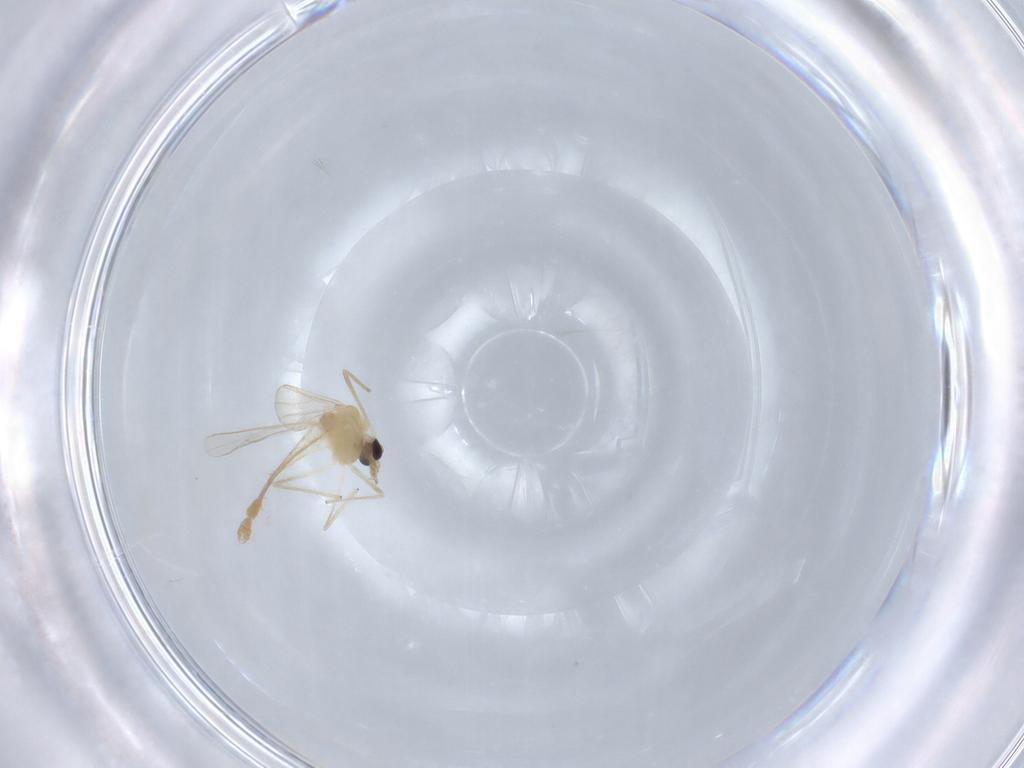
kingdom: Animalia
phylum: Arthropoda
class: Insecta
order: Diptera
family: Chironomidae
